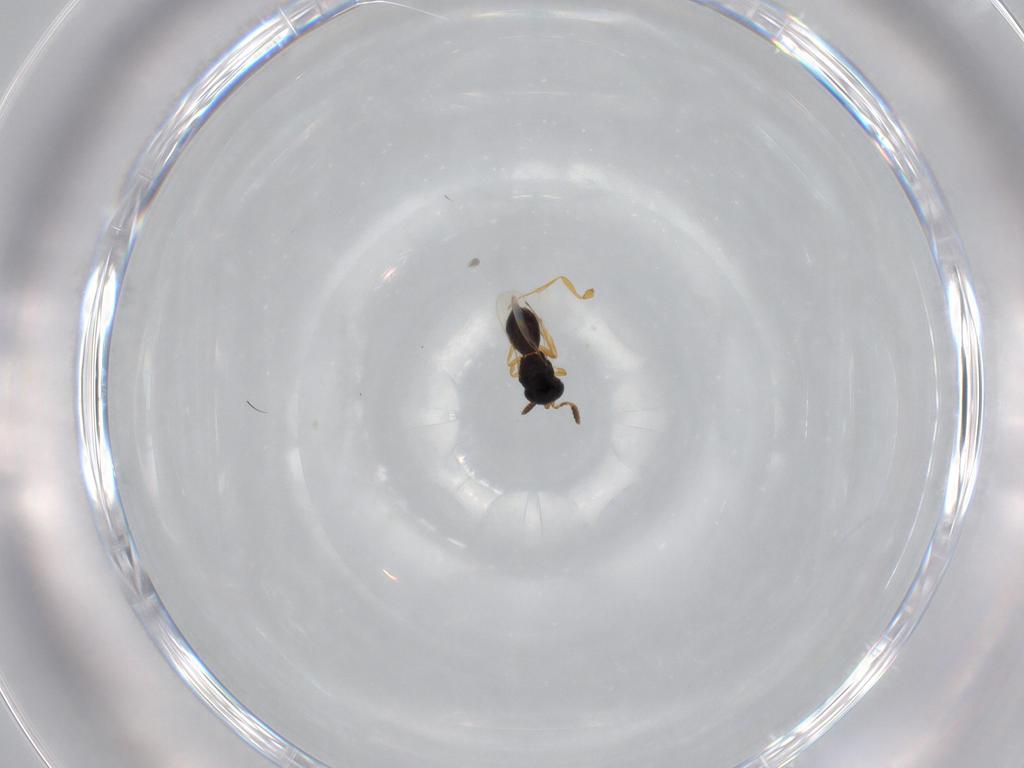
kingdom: Animalia
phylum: Arthropoda
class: Insecta
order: Hymenoptera
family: Scelionidae
